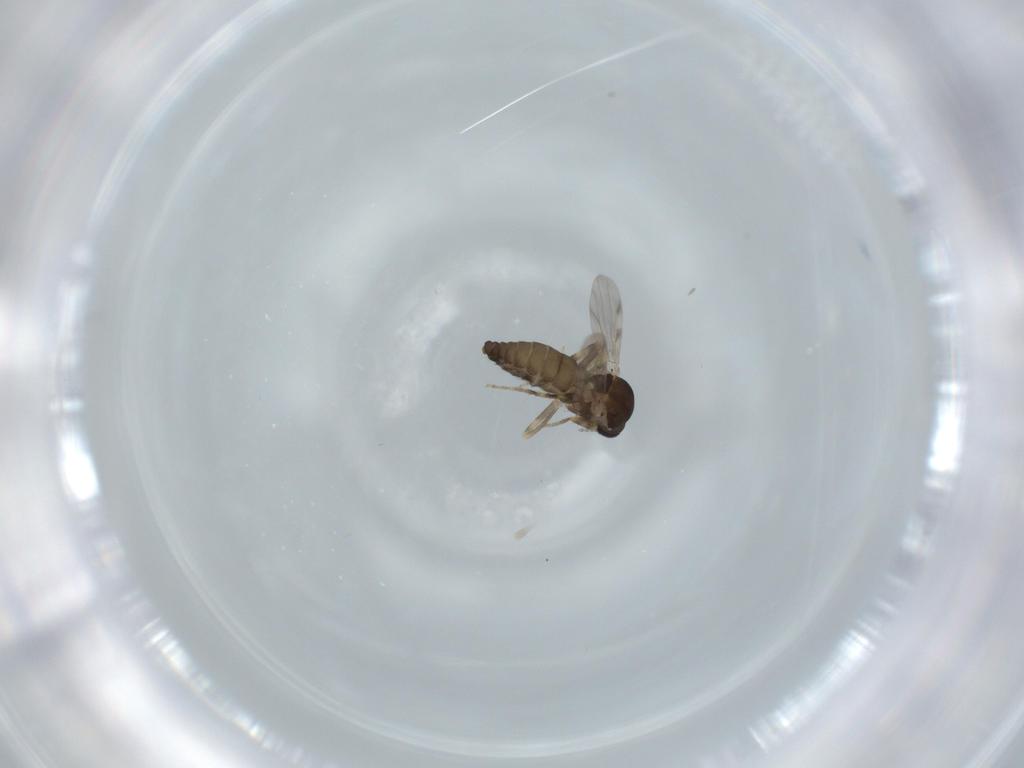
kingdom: Animalia
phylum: Arthropoda
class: Insecta
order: Diptera
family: Ceratopogonidae
